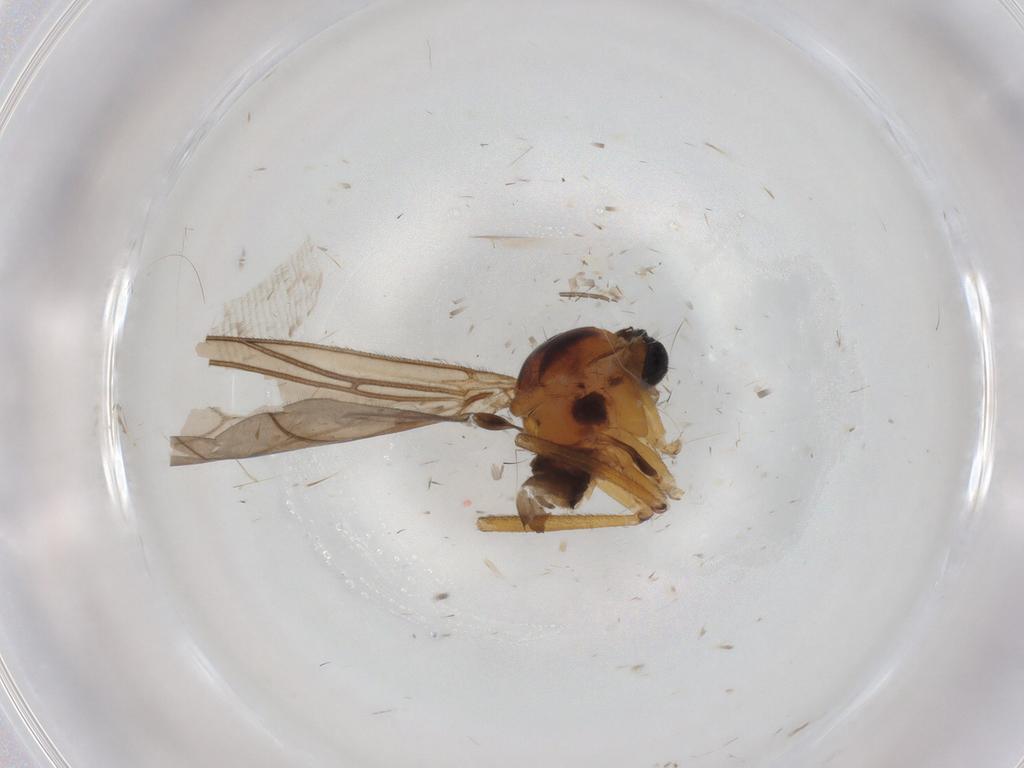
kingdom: Animalia
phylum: Arthropoda
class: Insecta
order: Diptera
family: Sciaridae
